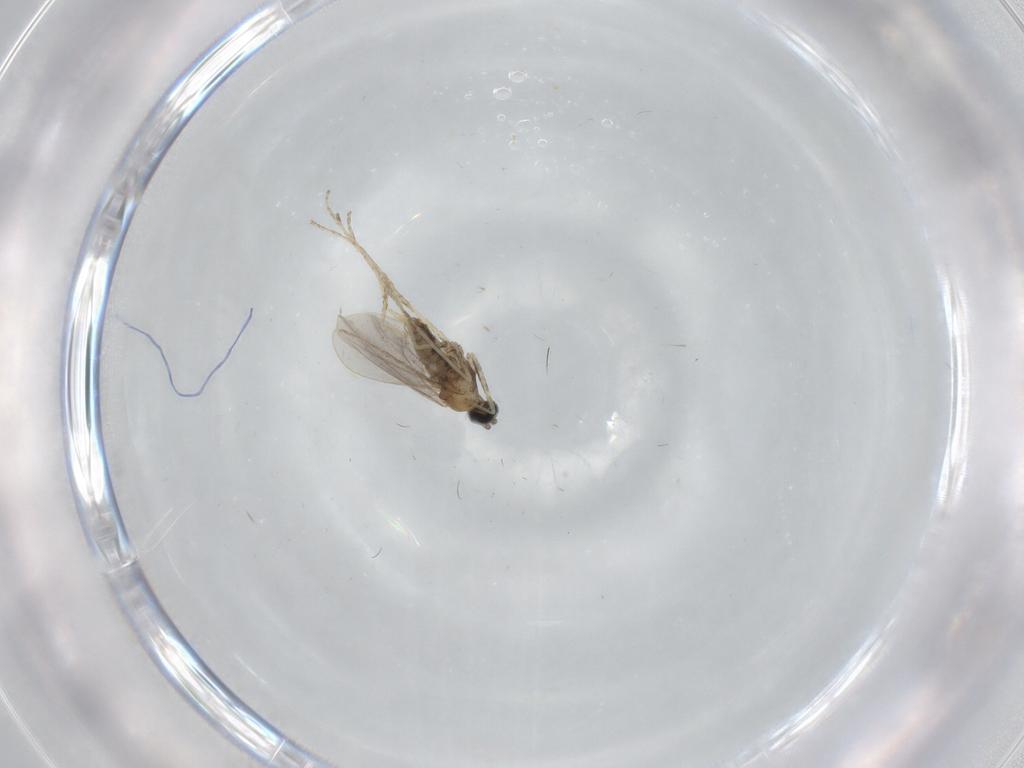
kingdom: Animalia
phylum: Arthropoda
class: Insecta
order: Diptera
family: Cecidomyiidae
